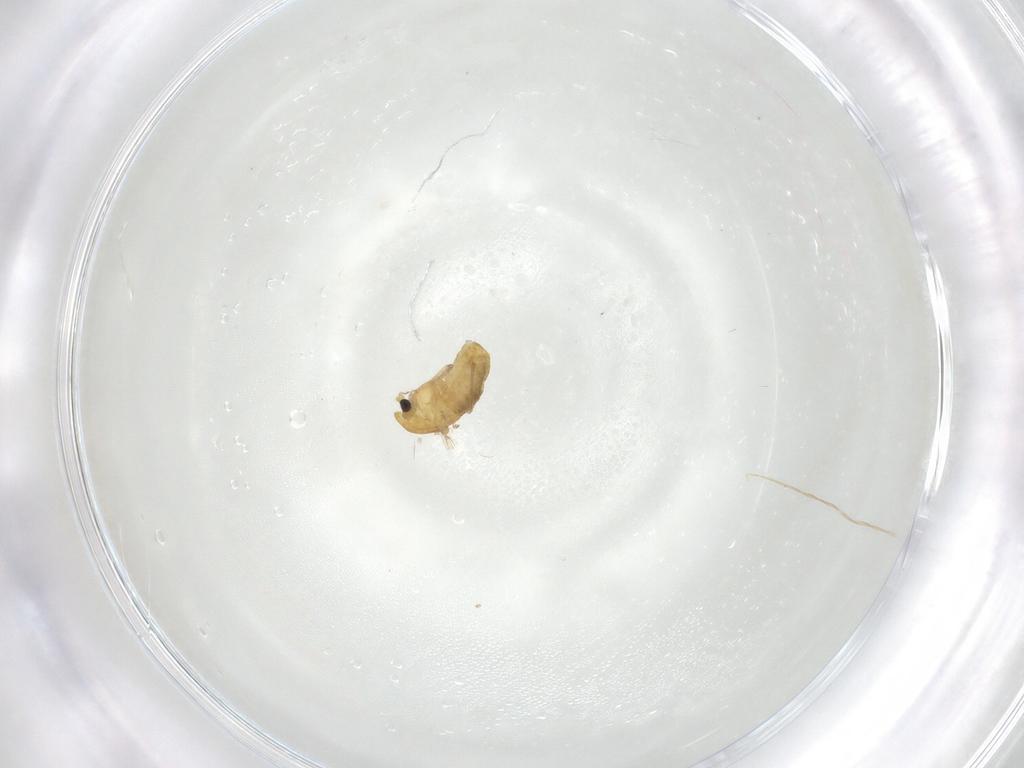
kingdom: Animalia
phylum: Arthropoda
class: Insecta
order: Diptera
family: Chironomidae
